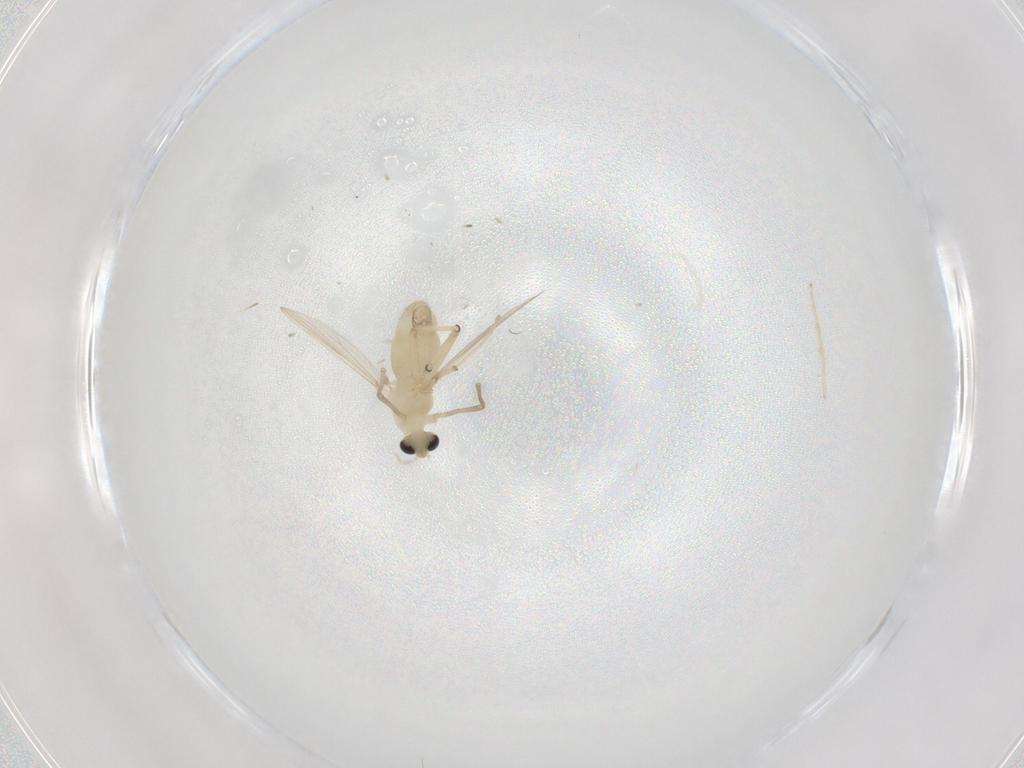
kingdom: Animalia
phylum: Arthropoda
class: Insecta
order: Diptera
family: Chironomidae
